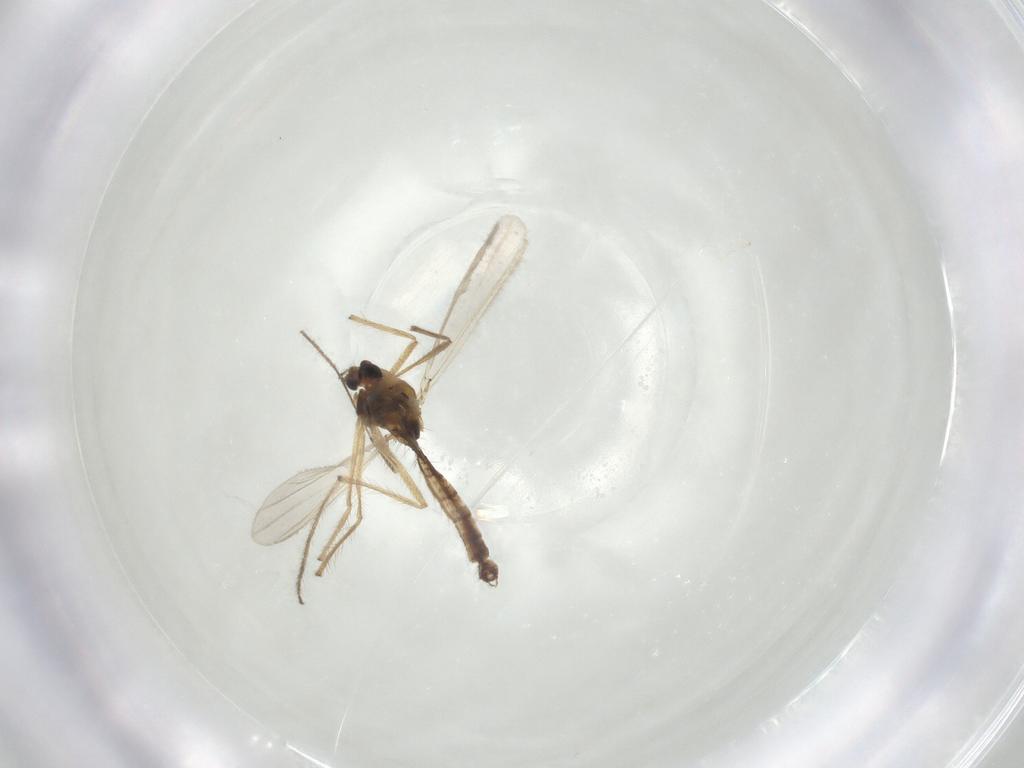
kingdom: Animalia
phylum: Arthropoda
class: Insecta
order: Diptera
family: Chironomidae
